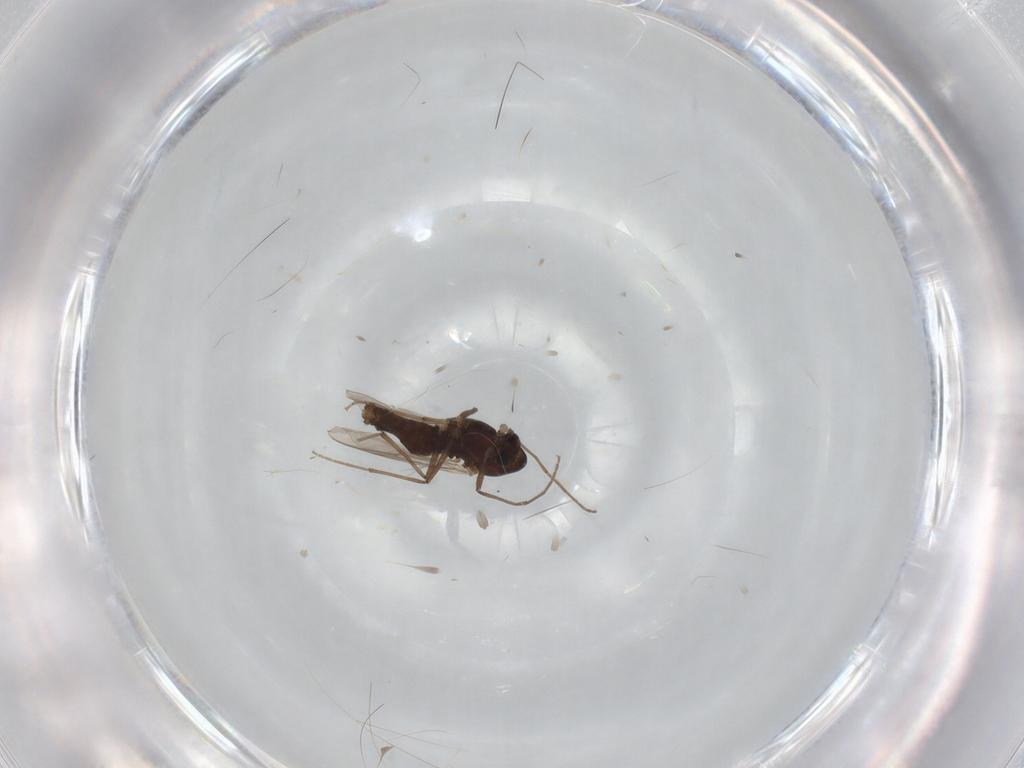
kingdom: Animalia
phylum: Arthropoda
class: Insecta
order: Diptera
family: Chironomidae
